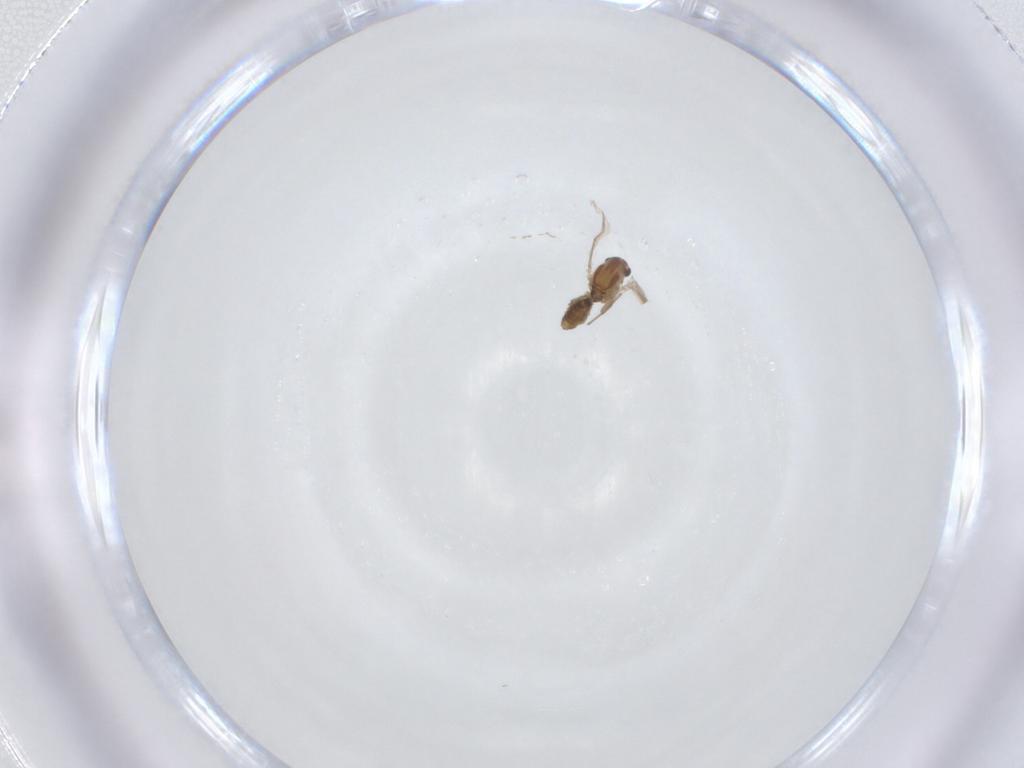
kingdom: Animalia
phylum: Arthropoda
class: Insecta
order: Diptera
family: Chironomidae
